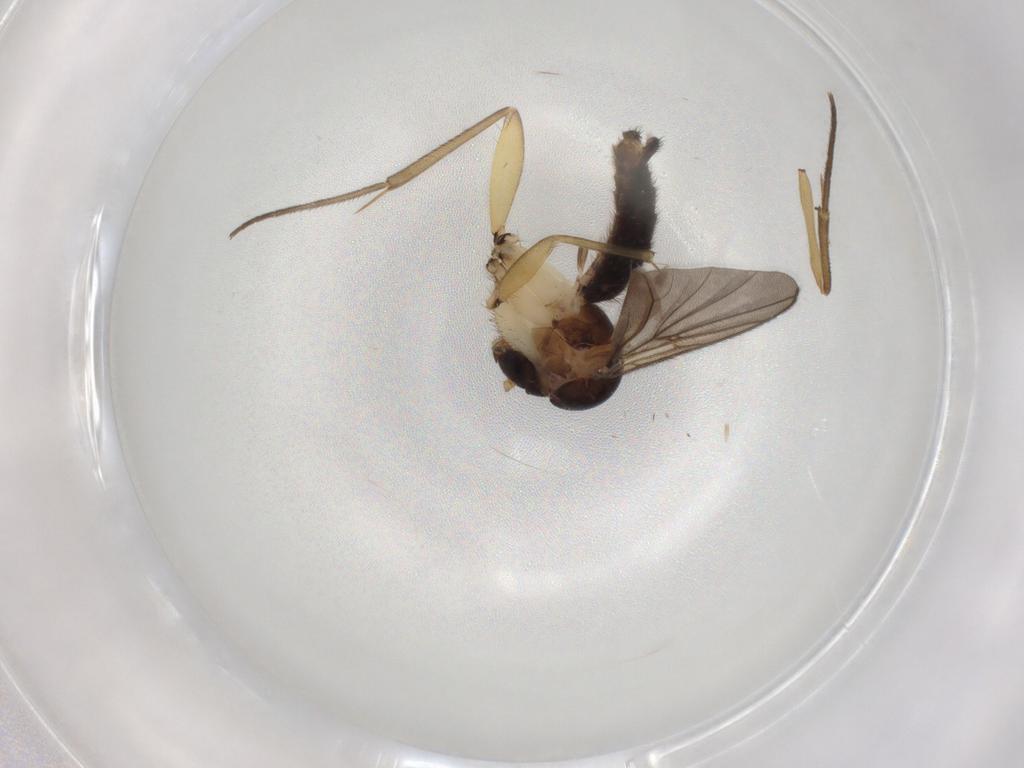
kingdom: Animalia
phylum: Arthropoda
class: Insecta
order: Diptera
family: Mycetophilidae
